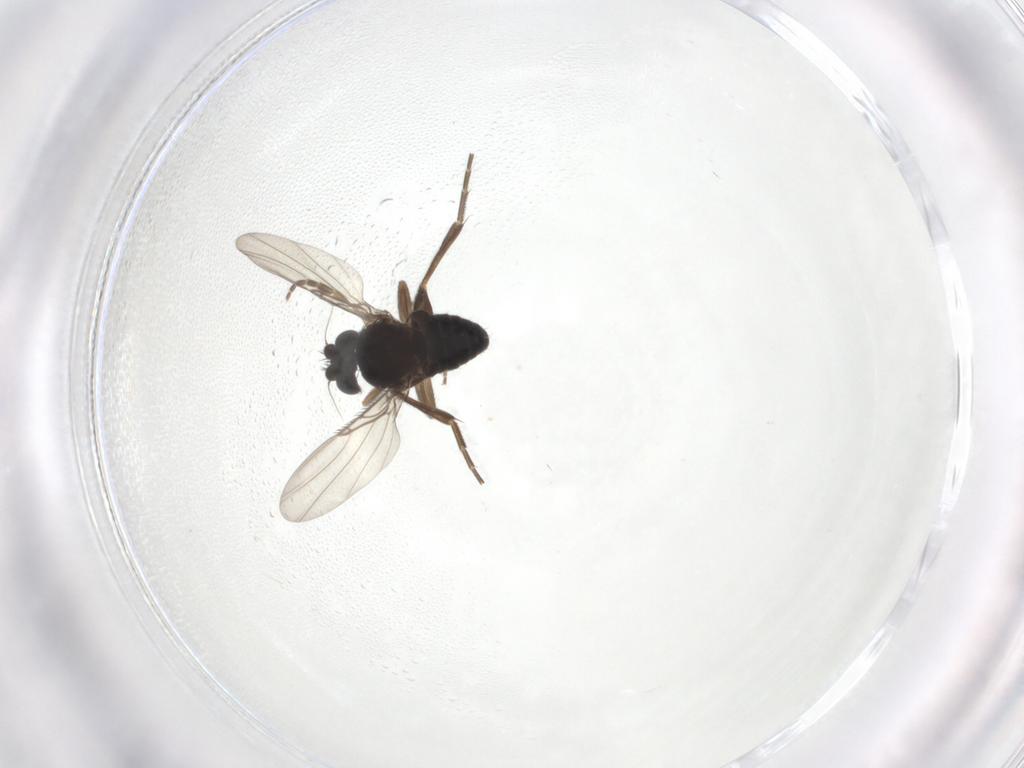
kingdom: Animalia
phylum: Arthropoda
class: Insecta
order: Diptera
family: Phoridae
